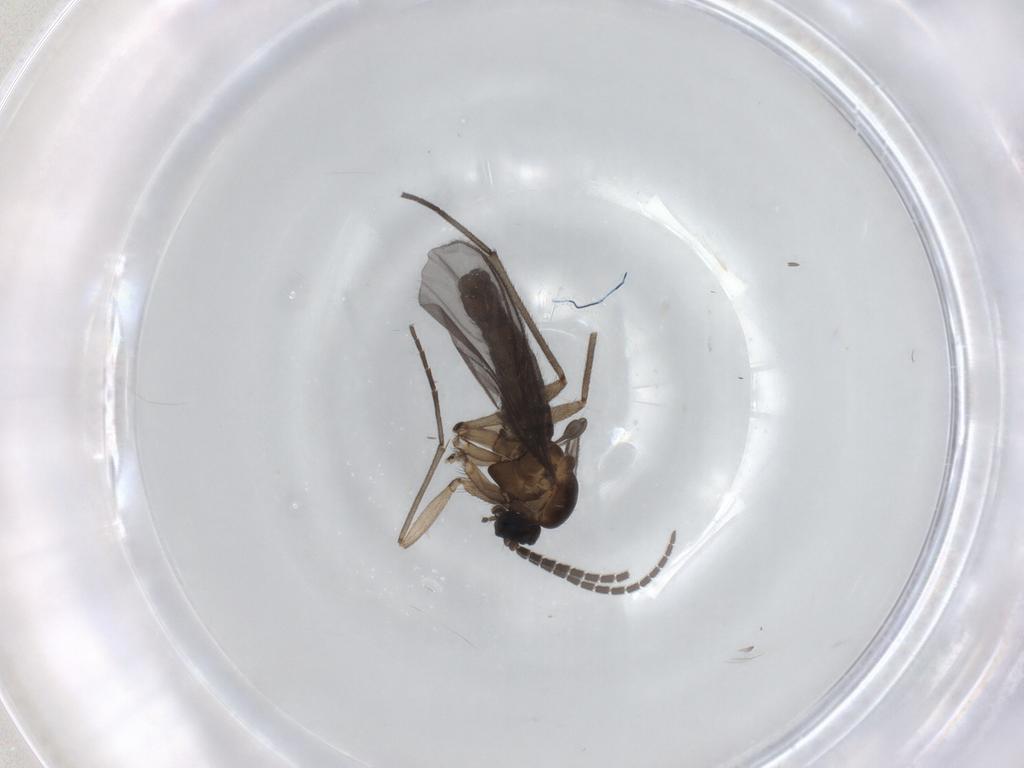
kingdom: Animalia
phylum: Arthropoda
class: Insecta
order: Diptera
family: Sciaridae
